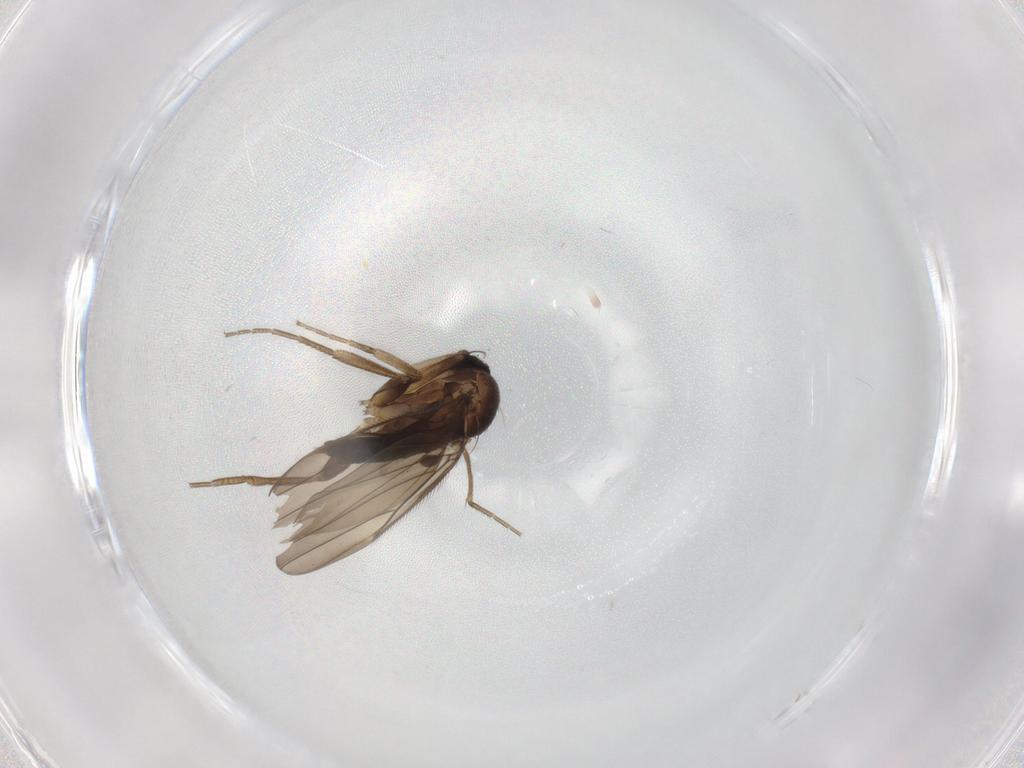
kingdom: Animalia
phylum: Arthropoda
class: Insecta
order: Diptera
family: Phoridae
